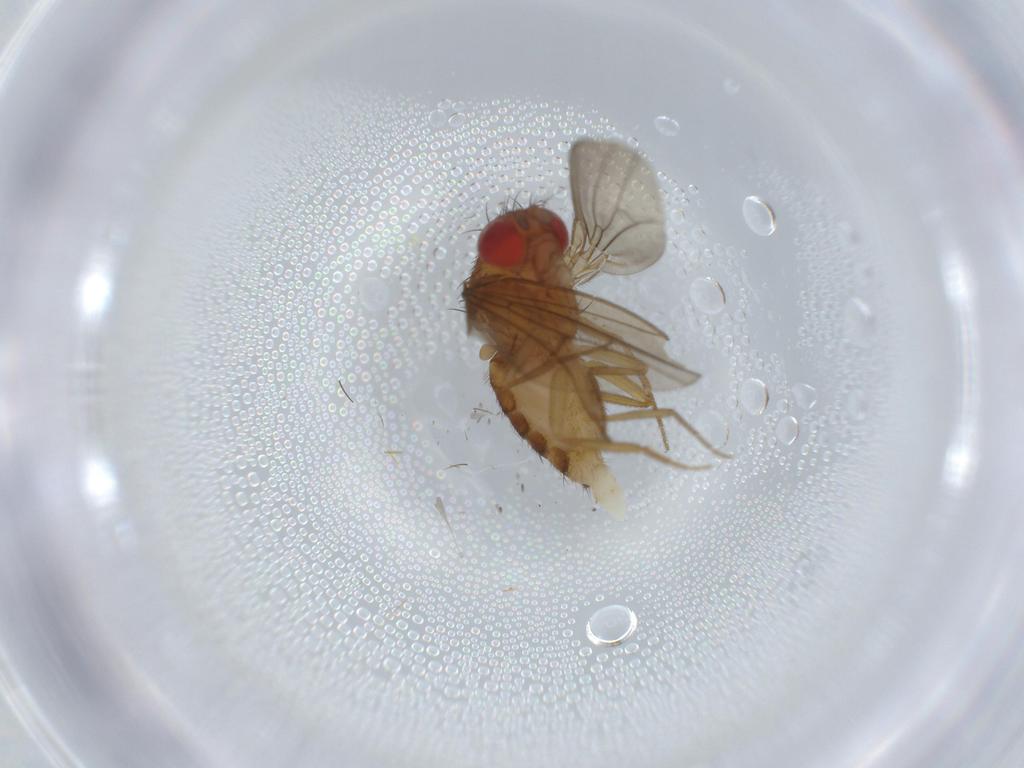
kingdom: Animalia
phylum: Arthropoda
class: Insecta
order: Diptera
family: Drosophilidae
